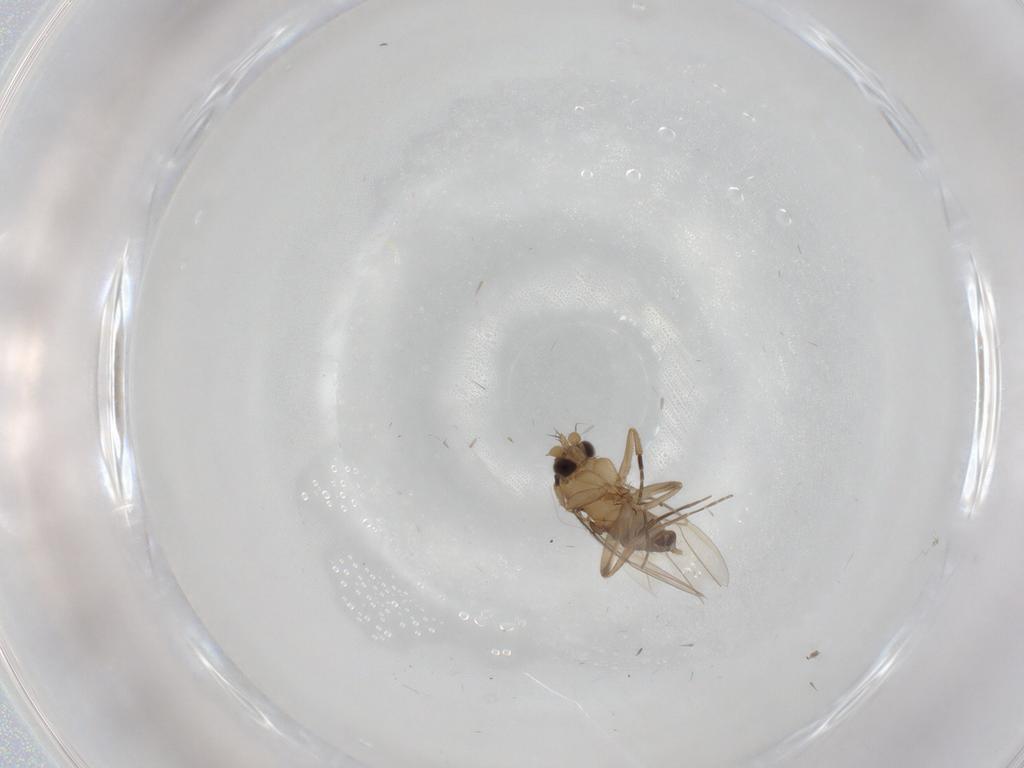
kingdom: Animalia
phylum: Arthropoda
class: Insecta
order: Diptera
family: Phoridae
